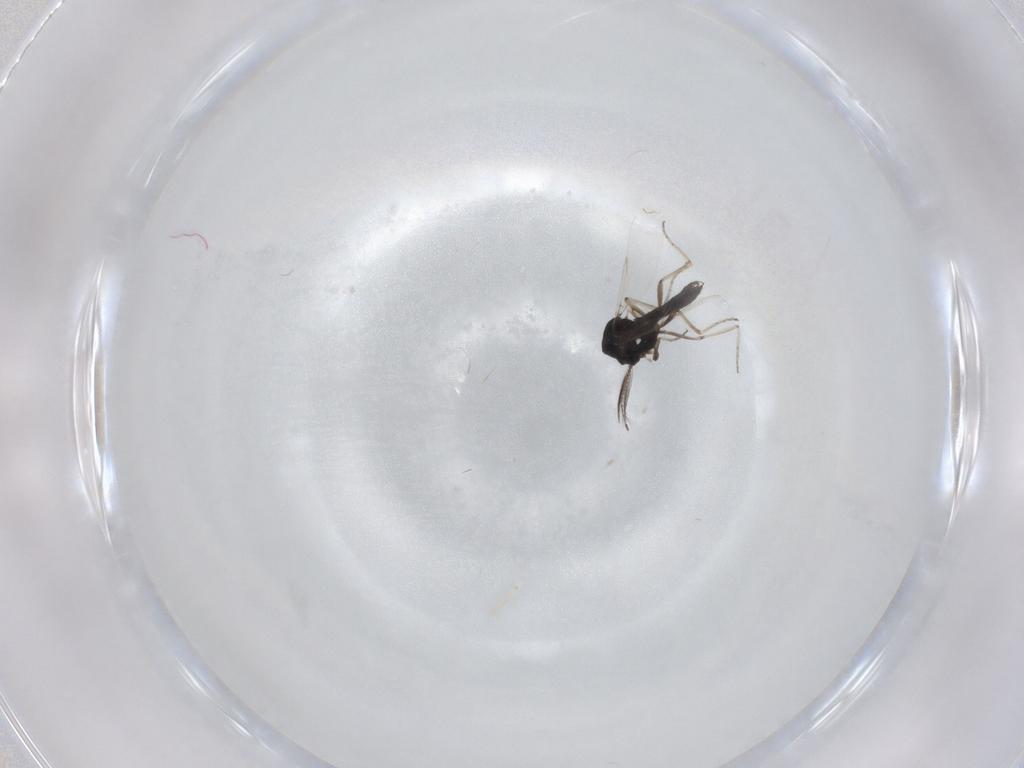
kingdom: Animalia
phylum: Arthropoda
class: Insecta
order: Diptera
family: Ceratopogonidae
